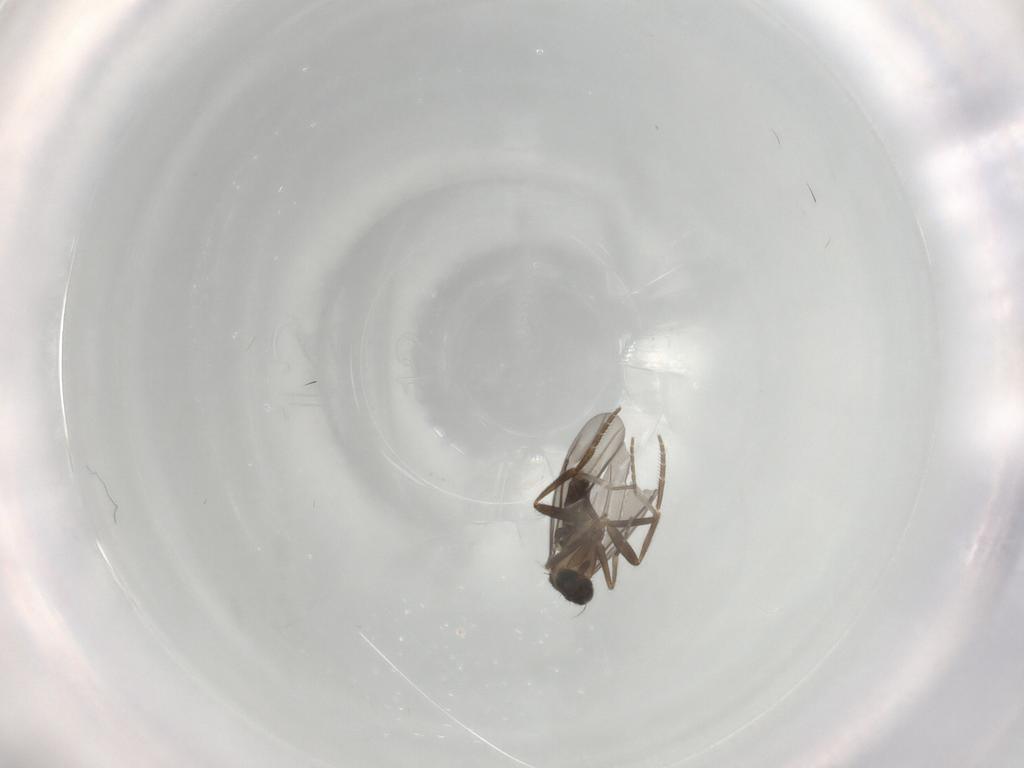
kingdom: Animalia
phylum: Arthropoda
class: Insecta
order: Diptera
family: Phoridae
